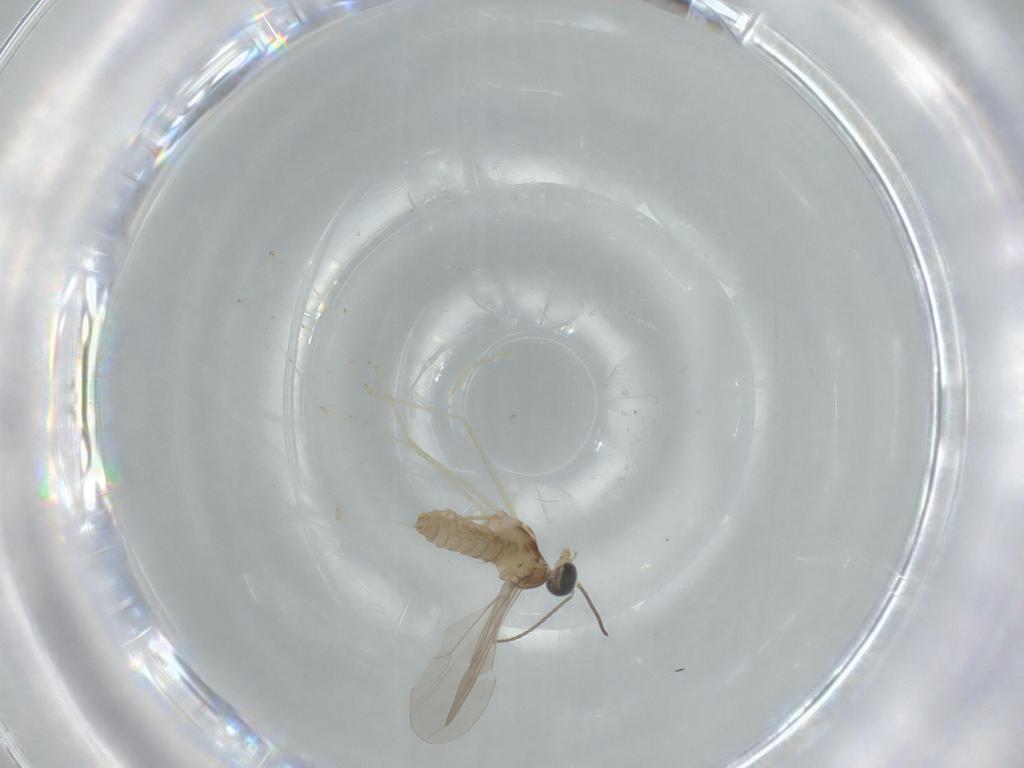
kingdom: Animalia
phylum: Arthropoda
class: Insecta
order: Diptera
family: Cecidomyiidae
